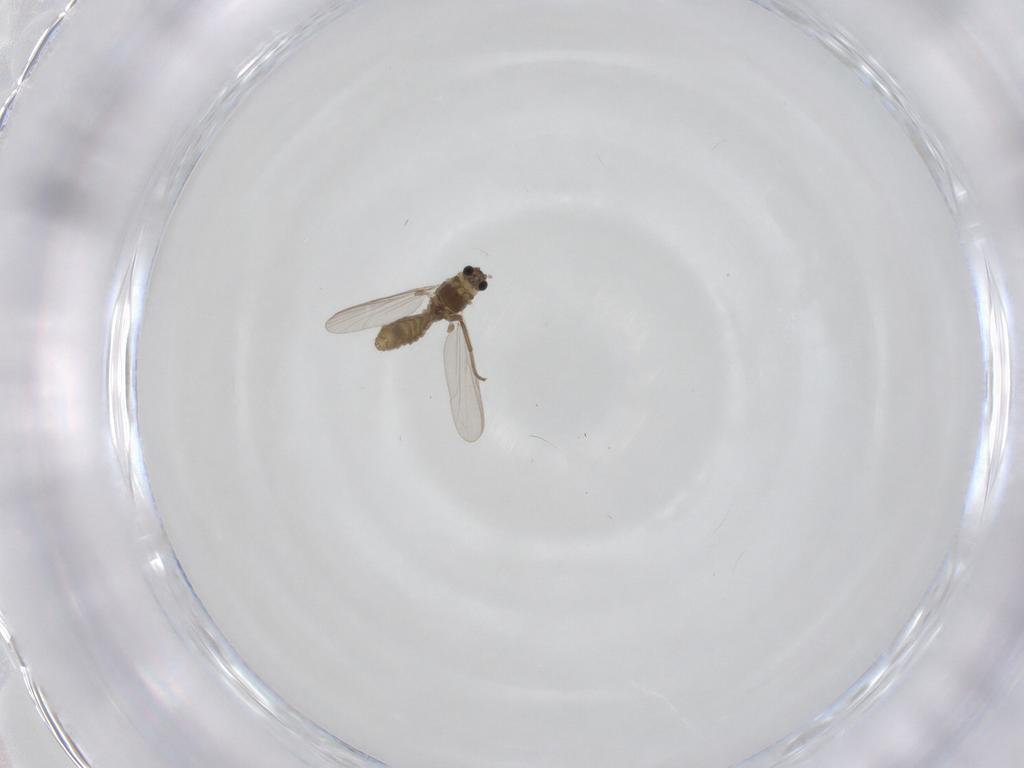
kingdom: Animalia
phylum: Arthropoda
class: Insecta
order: Diptera
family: Chironomidae
